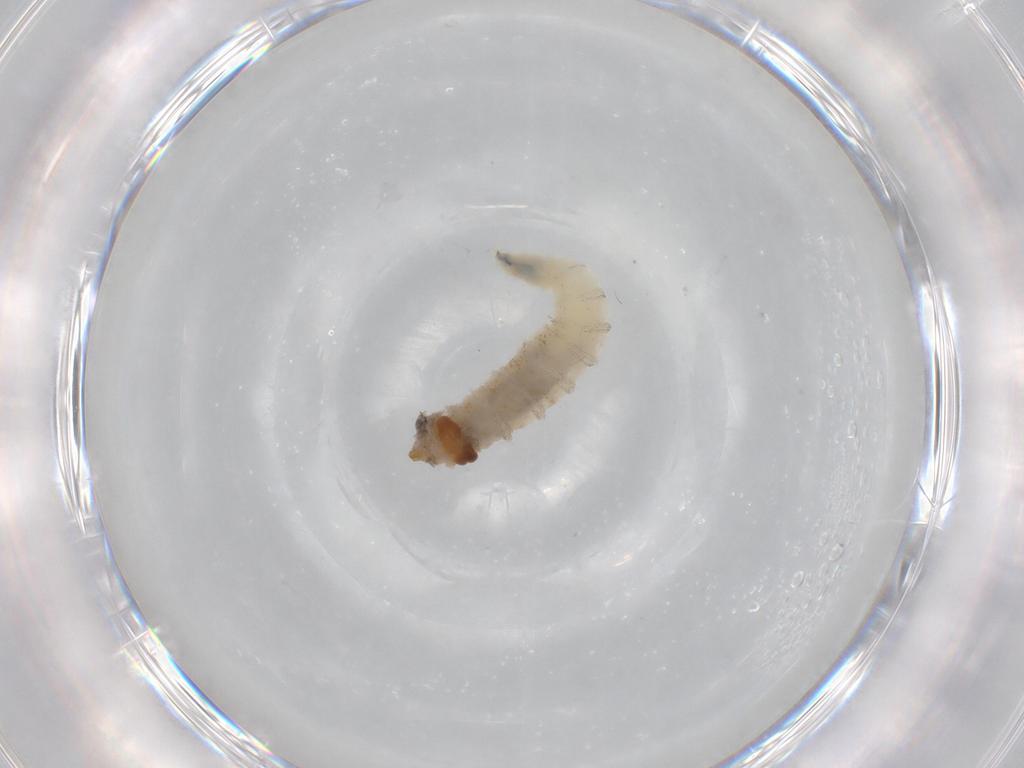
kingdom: Animalia
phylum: Arthropoda
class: Insecta
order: Diptera
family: Drosophilidae
